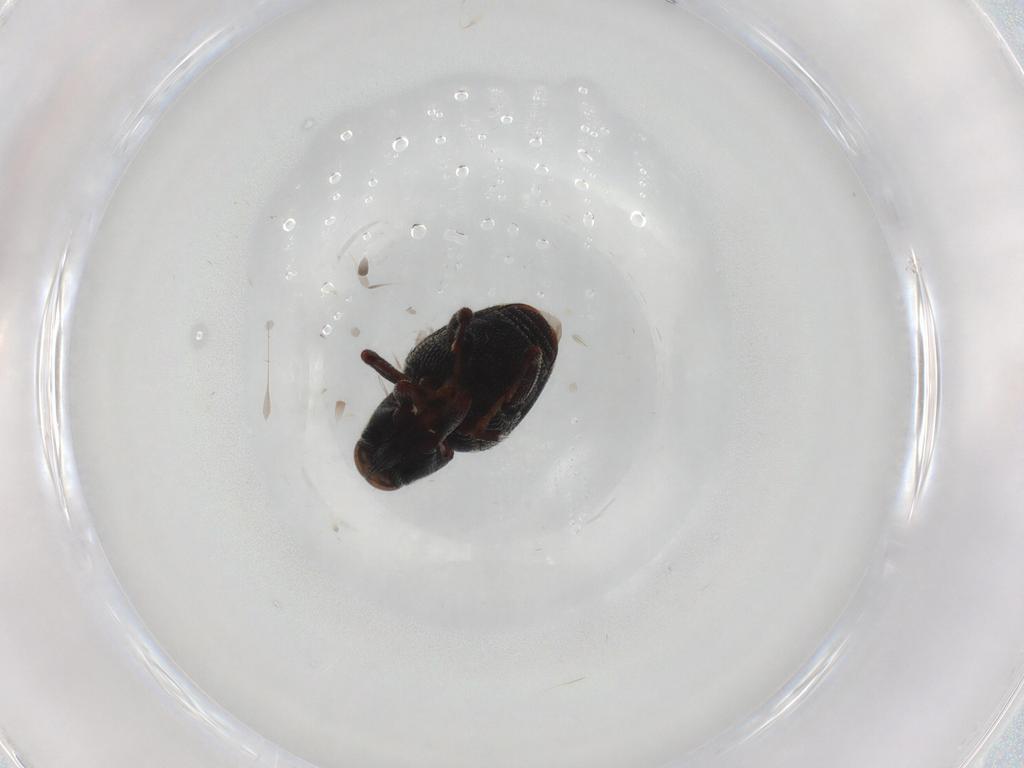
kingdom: Animalia
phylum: Arthropoda
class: Insecta
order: Coleoptera
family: Curculionidae
